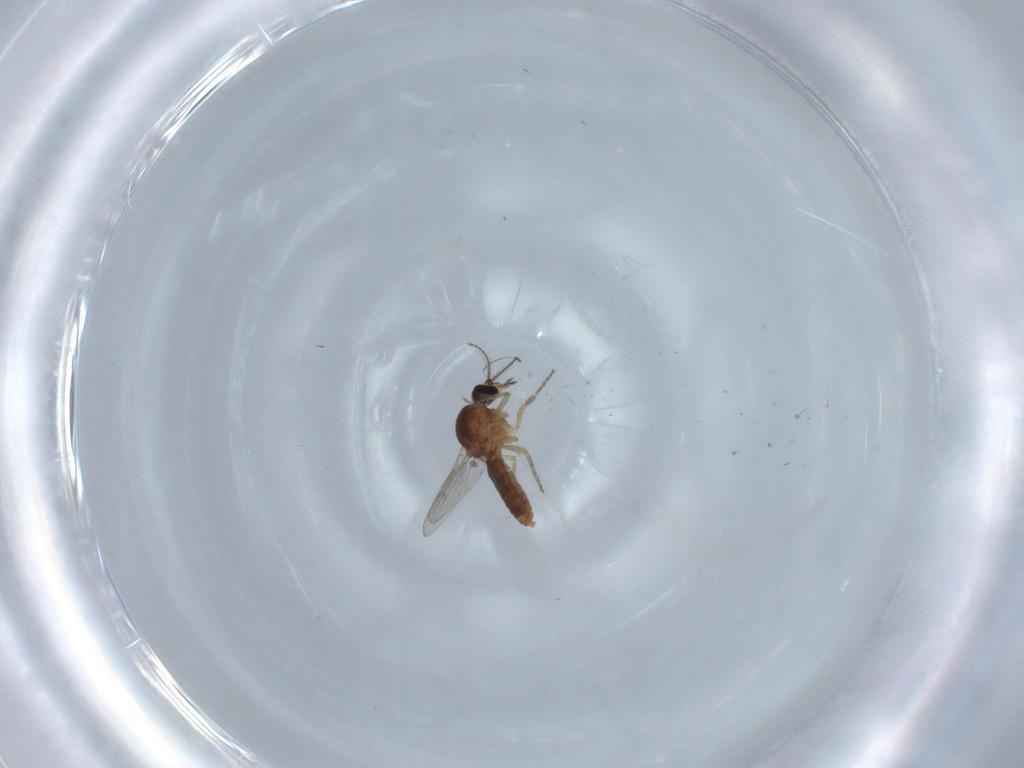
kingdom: Animalia
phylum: Arthropoda
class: Insecta
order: Diptera
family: Ceratopogonidae
